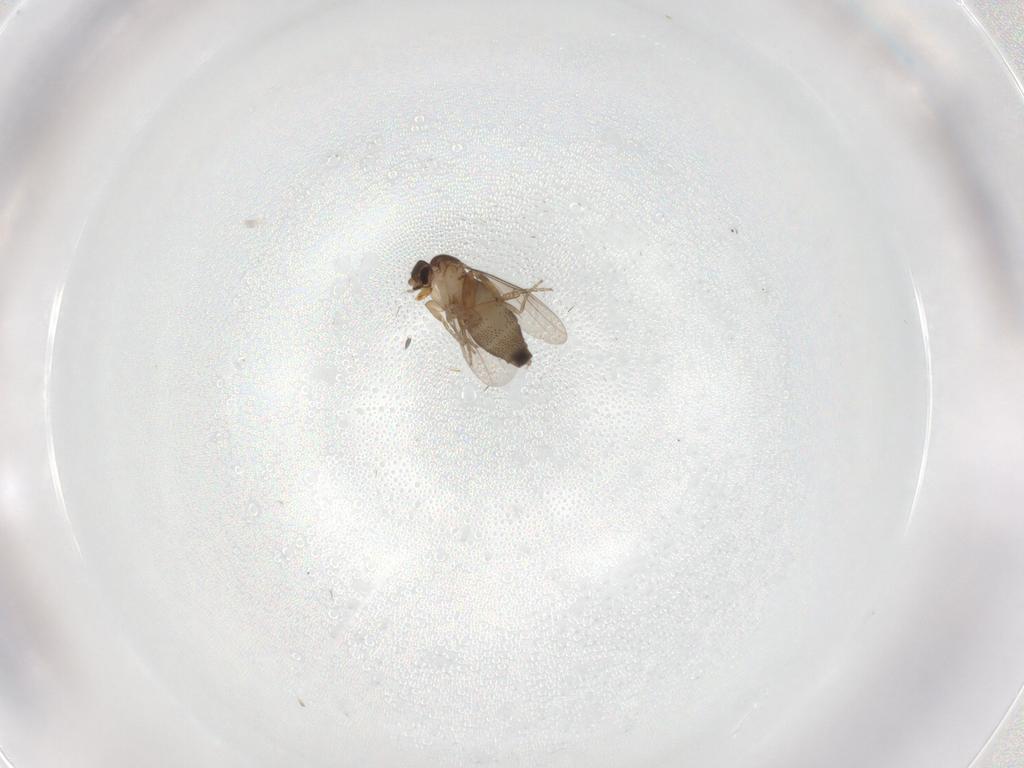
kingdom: Animalia
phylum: Arthropoda
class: Insecta
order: Diptera
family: Phoridae
